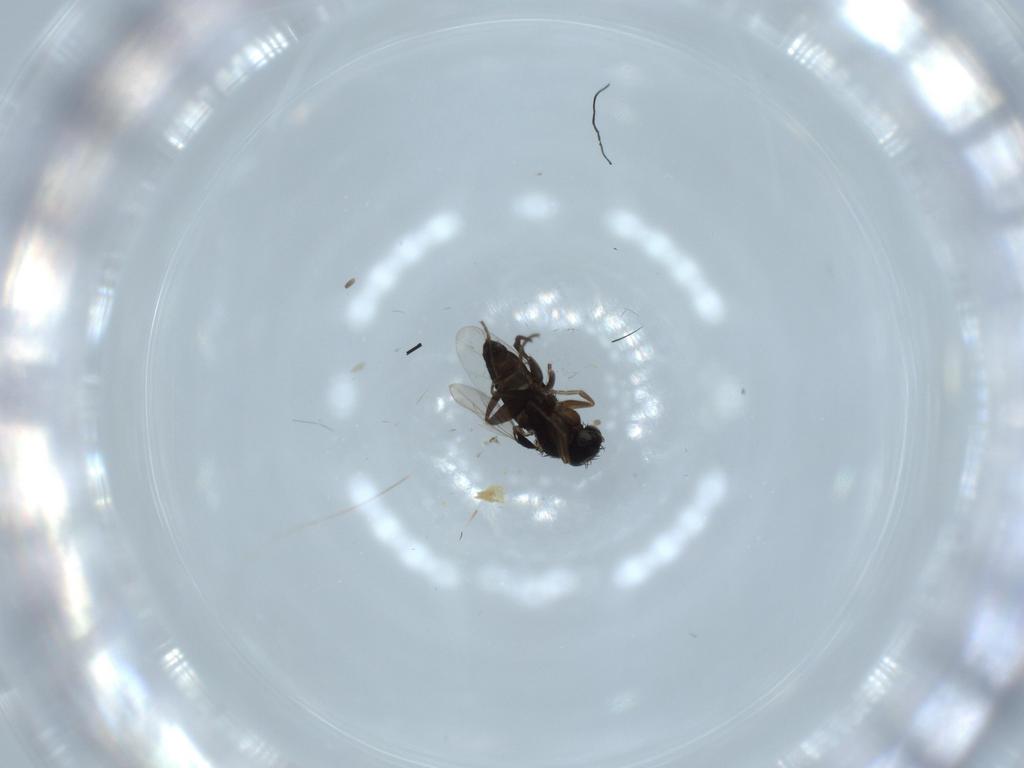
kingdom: Animalia
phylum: Arthropoda
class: Insecta
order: Diptera
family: Phoridae
